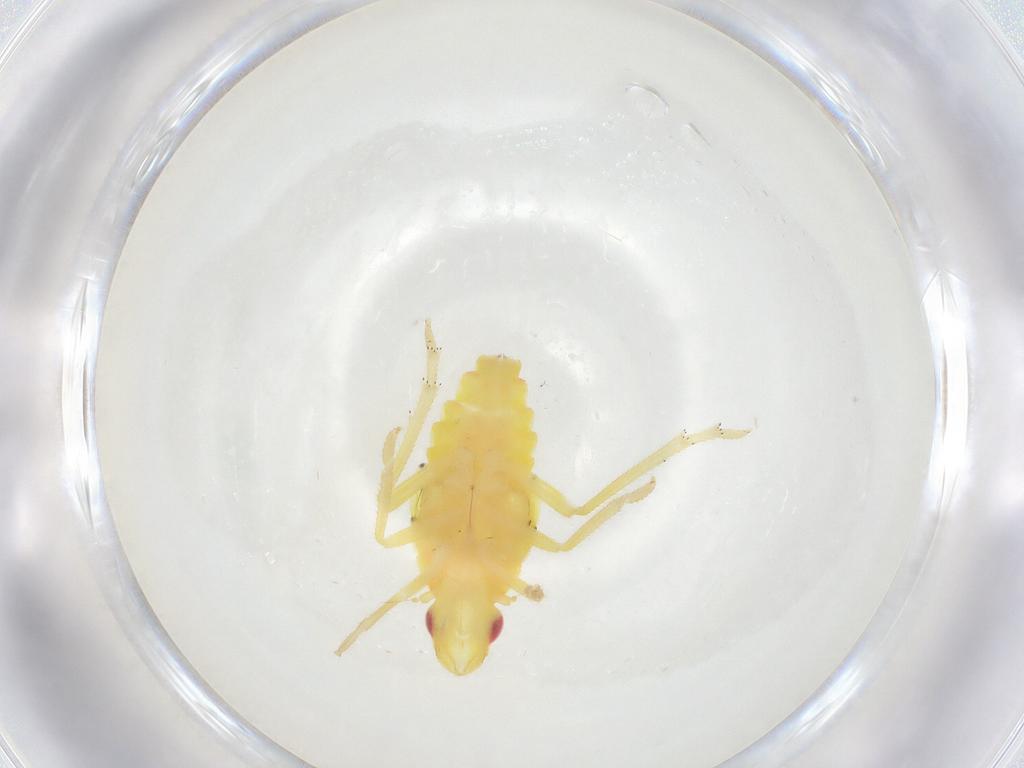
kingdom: Animalia
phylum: Arthropoda
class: Insecta
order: Hemiptera
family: Tropiduchidae
